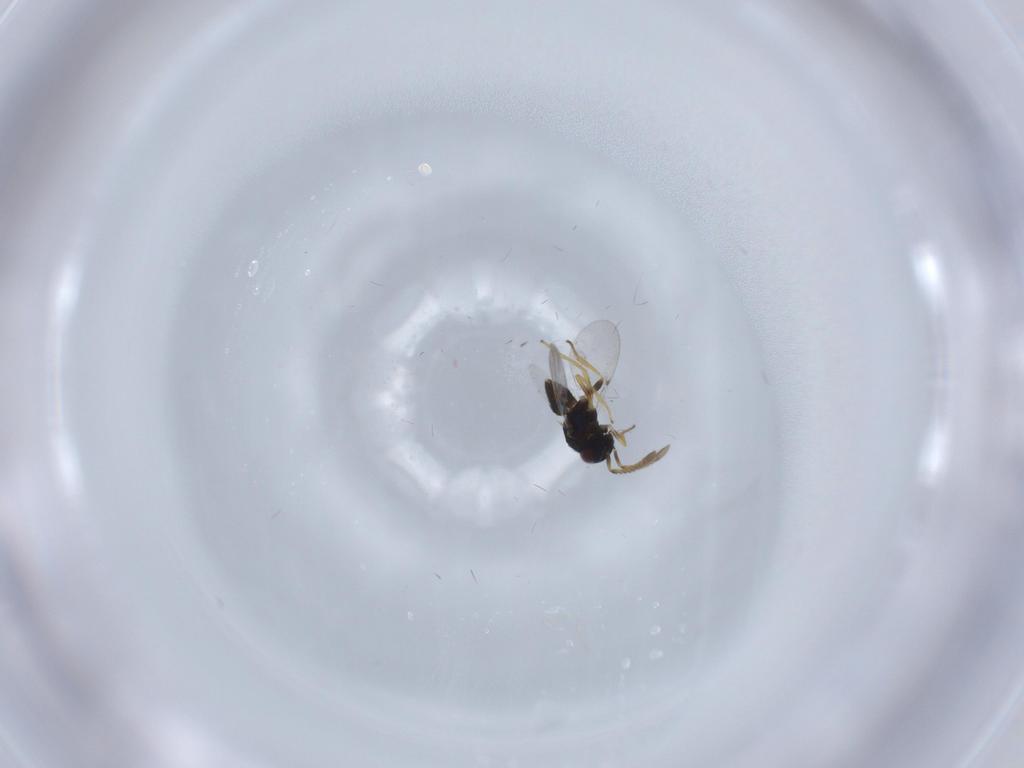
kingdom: Animalia
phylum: Arthropoda
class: Insecta
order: Hymenoptera
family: Encyrtidae
